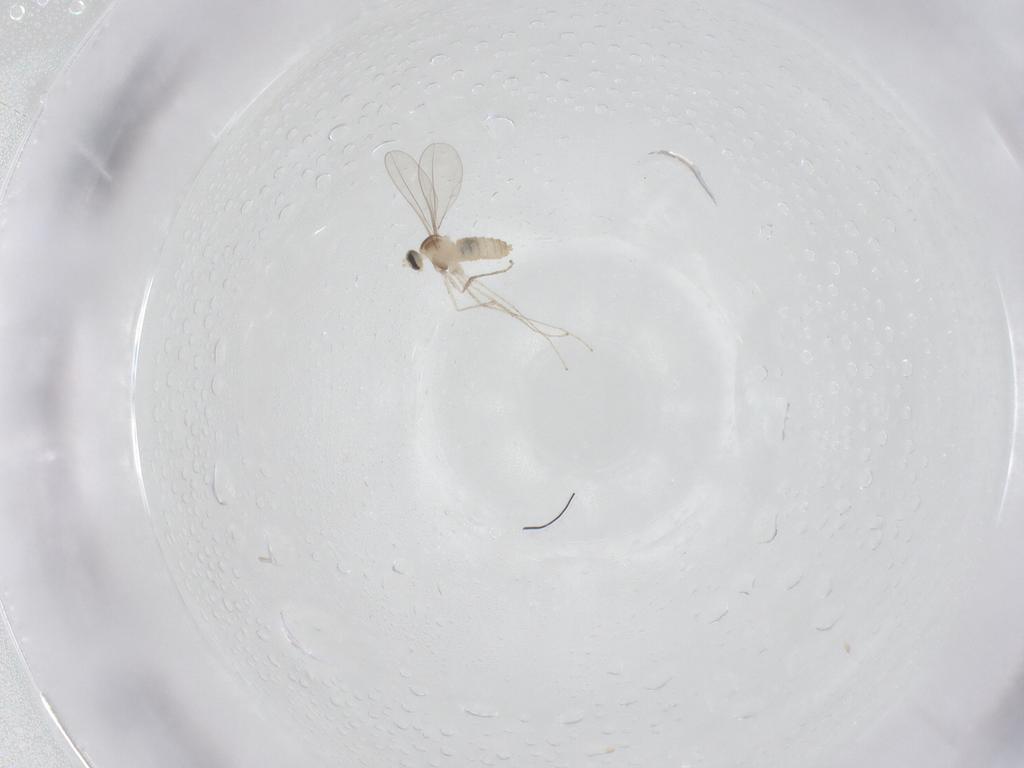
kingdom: Animalia
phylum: Arthropoda
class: Insecta
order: Diptera
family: Cecidomyiidae
